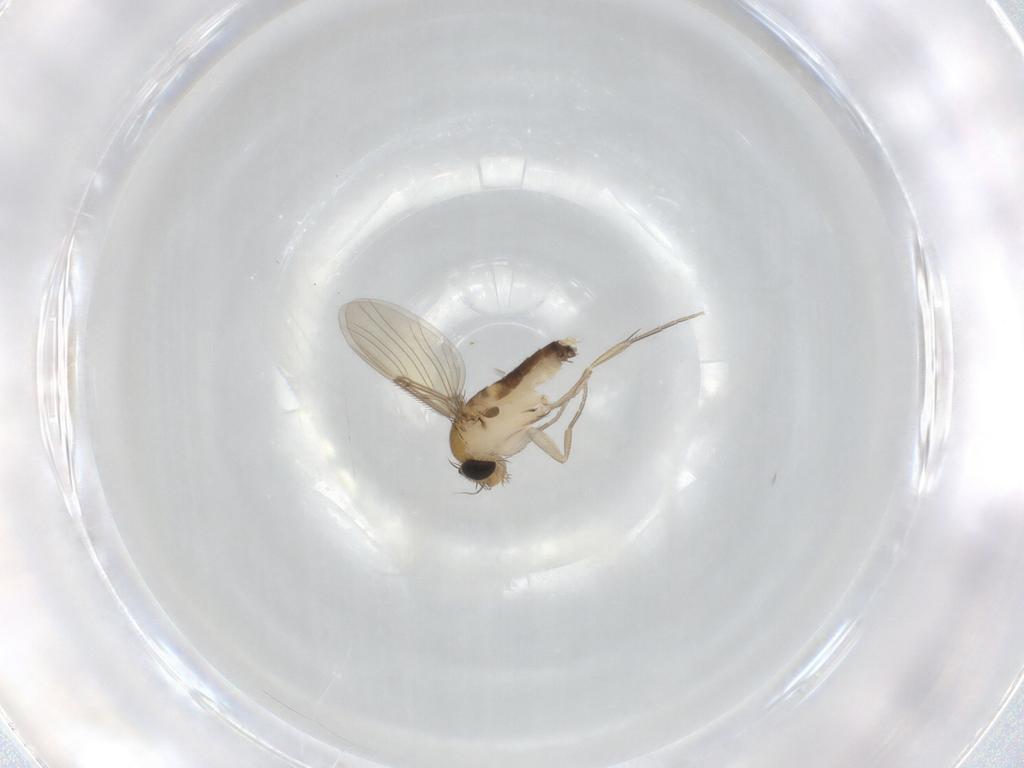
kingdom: Animalia
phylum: Arthropoda
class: Insecta
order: Diptera
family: Phoridae
